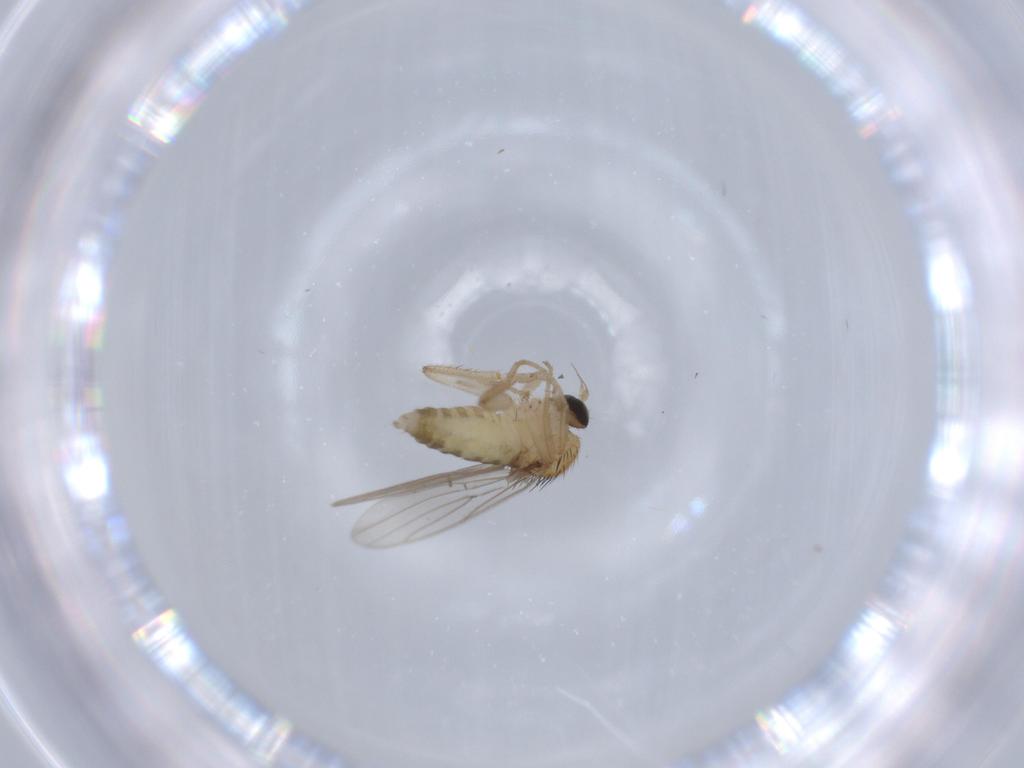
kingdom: Animalia
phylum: Arthropoda
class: Insecta
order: Diptera
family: Hybotidae
